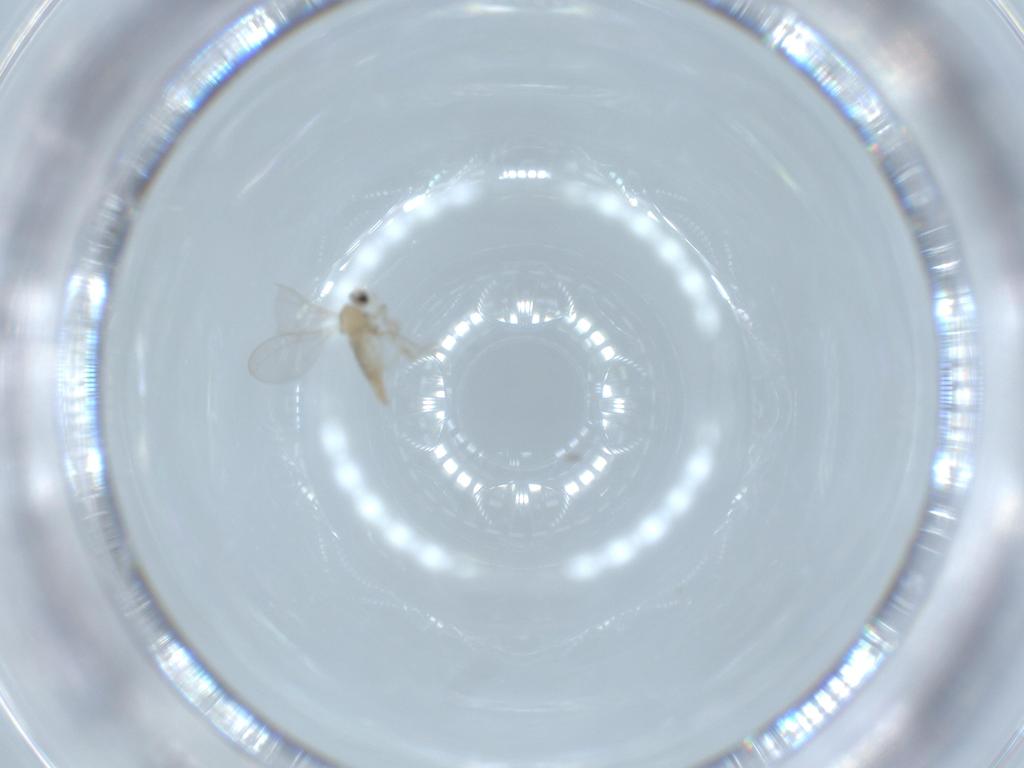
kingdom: Animalia
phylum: Arthropoda
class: Insecta
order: Diptera
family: Cecidomyiidae
